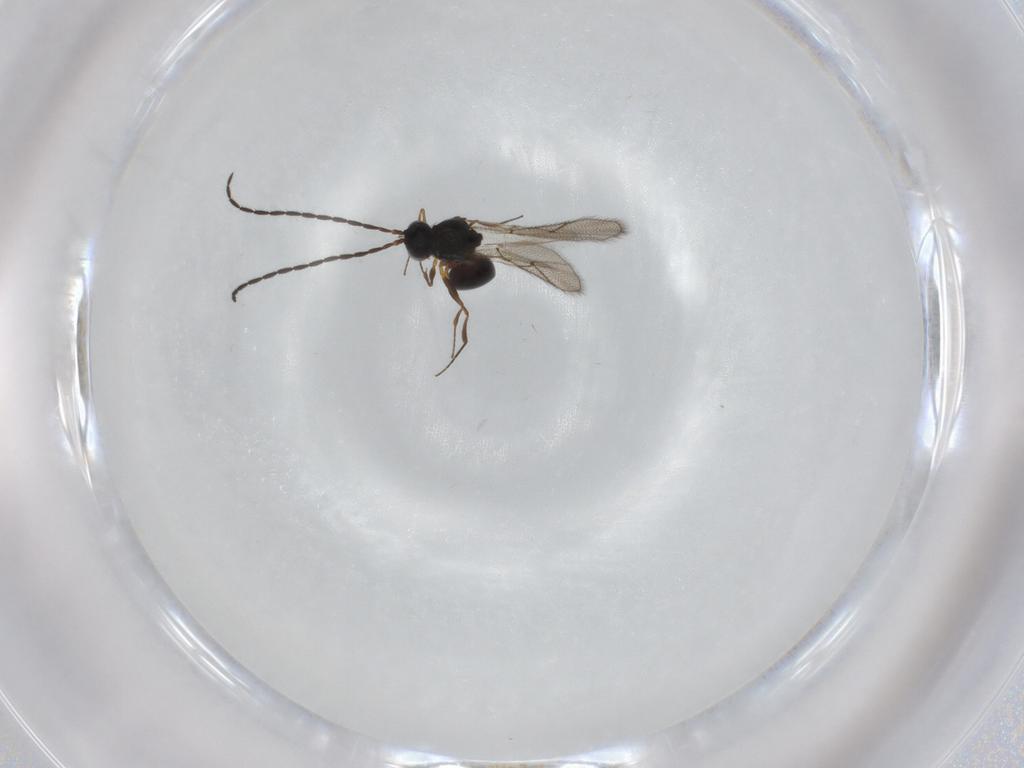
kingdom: Animalia
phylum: Arthropoda
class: Insecta
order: Hymenoptera
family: Figitidae
